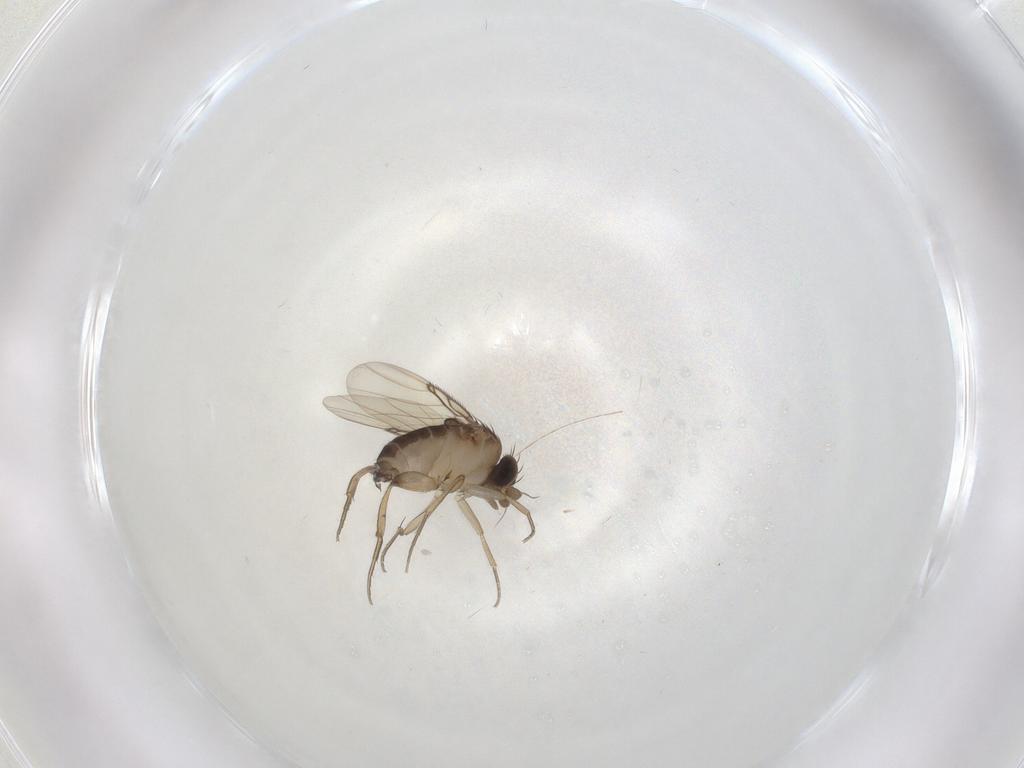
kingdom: Animalia
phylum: Arthropoda
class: Insecta
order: Diptera
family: Phoridae
